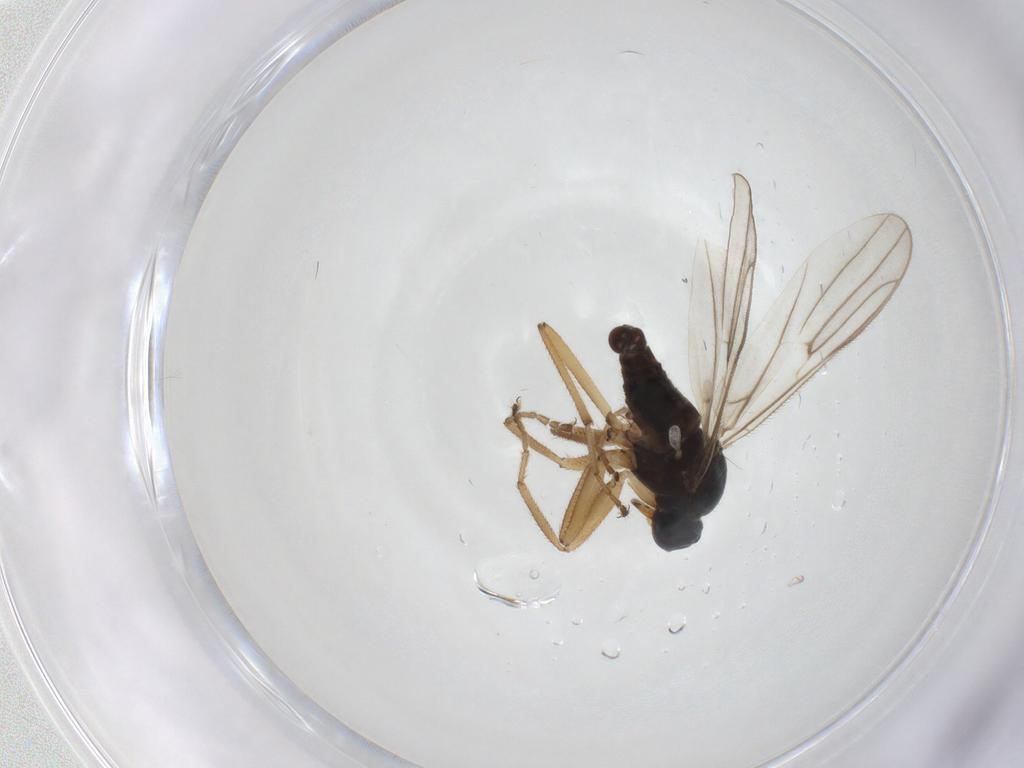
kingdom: Animalia
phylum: Arthropoda
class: Insecta
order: Diptera
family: Hybotidae
